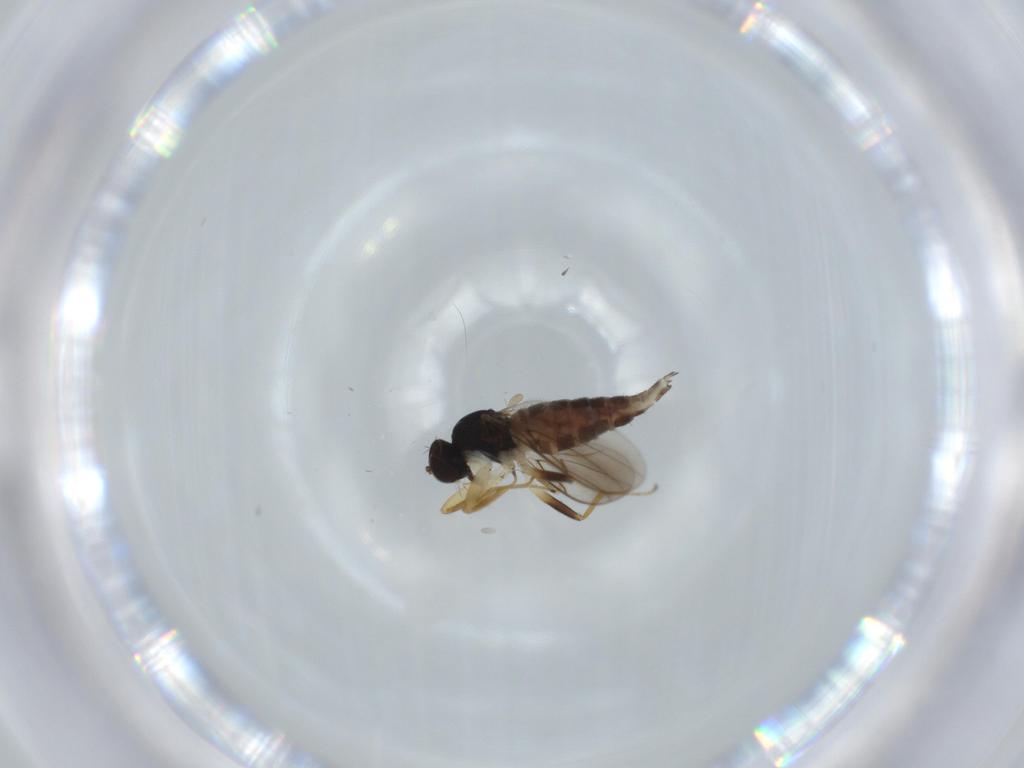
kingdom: Animalia
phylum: Arthropoda
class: Insecta
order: Diptera
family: Hybotidae
